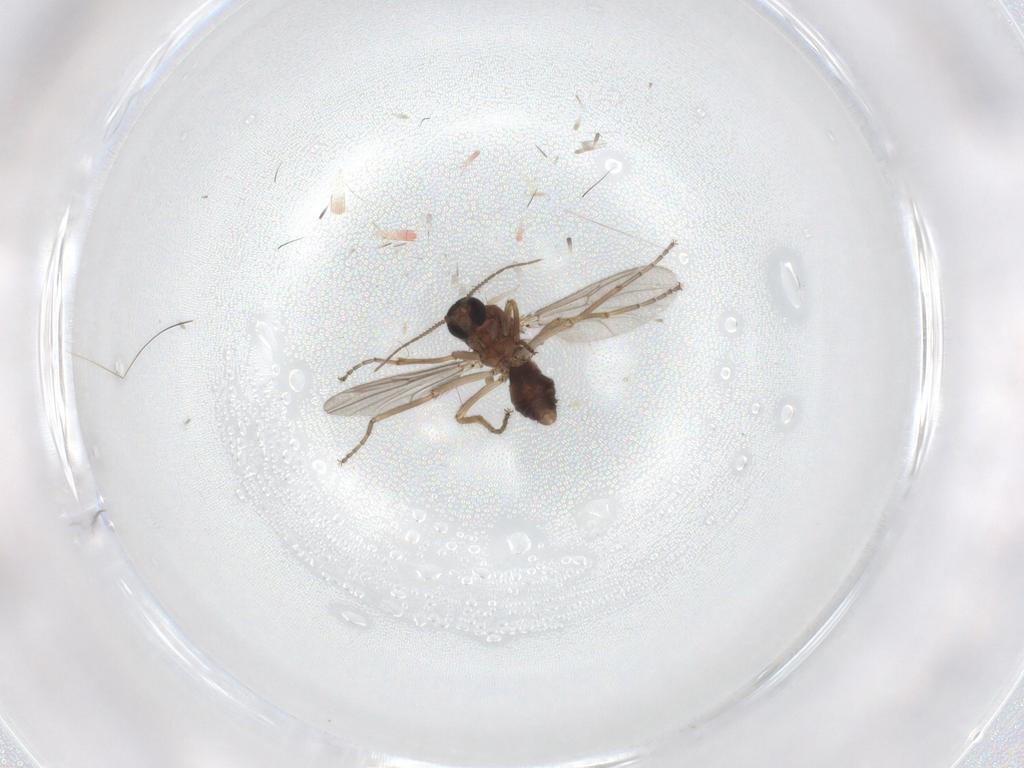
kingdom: Animalia
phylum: Arthropoda
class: Insecta
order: Diptera
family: Ceratopogonidae
